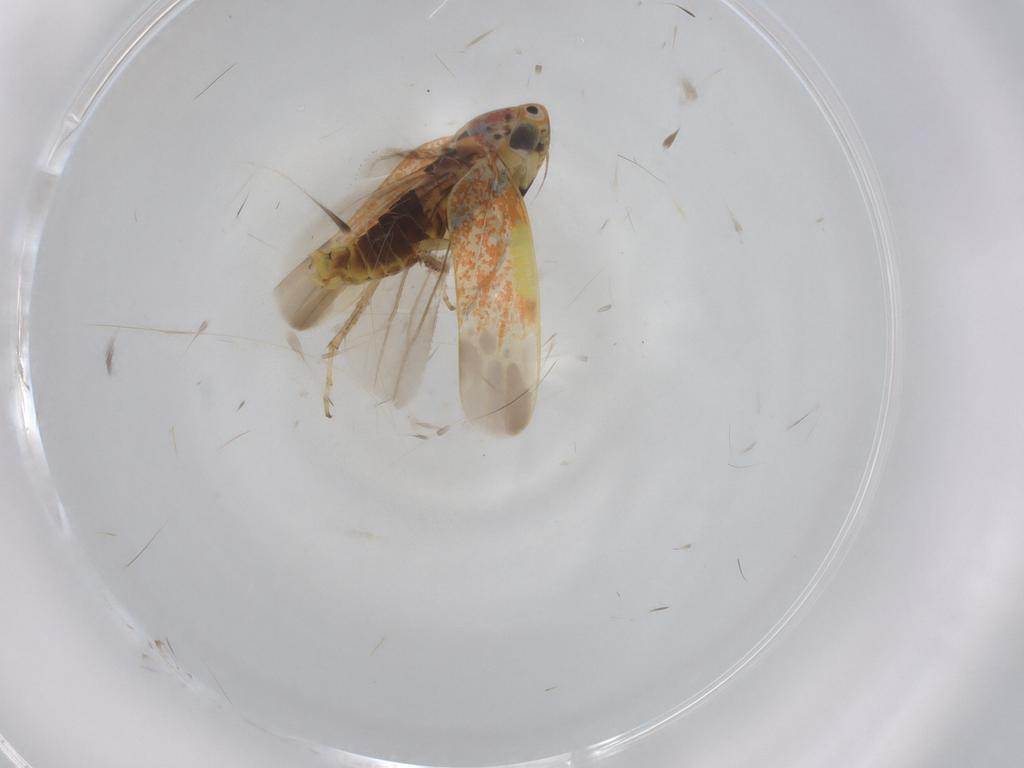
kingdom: Animalia
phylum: Arthropoda
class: Insecta
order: Hemiptera
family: Cicadellidae
